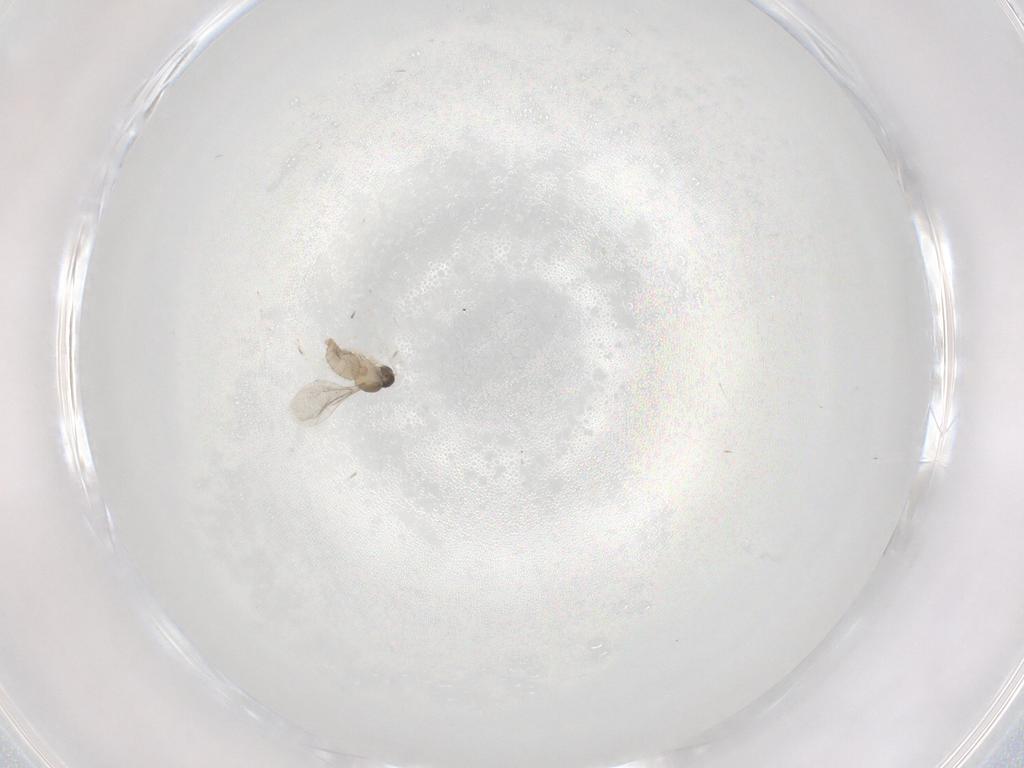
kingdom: Animalia
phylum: Arthropoda
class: Insecta
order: Diptera
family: Cecidomyiidae
